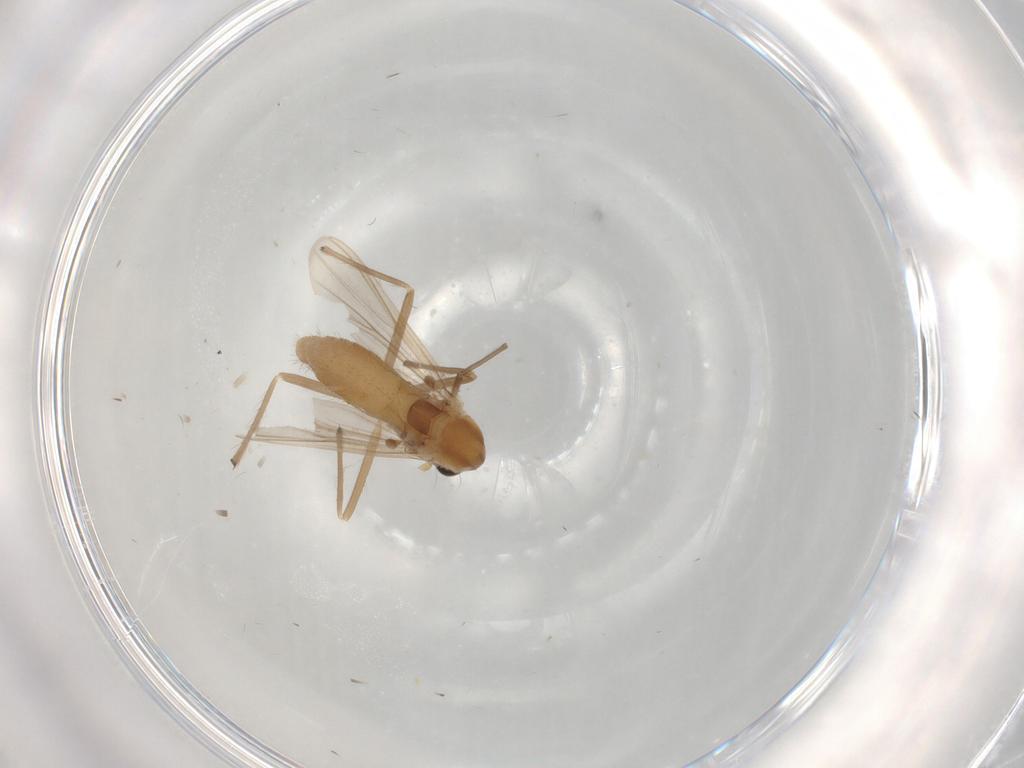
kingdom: Animalia
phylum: Arthropoda
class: Insecta
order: Diptera
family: Chironomidae
